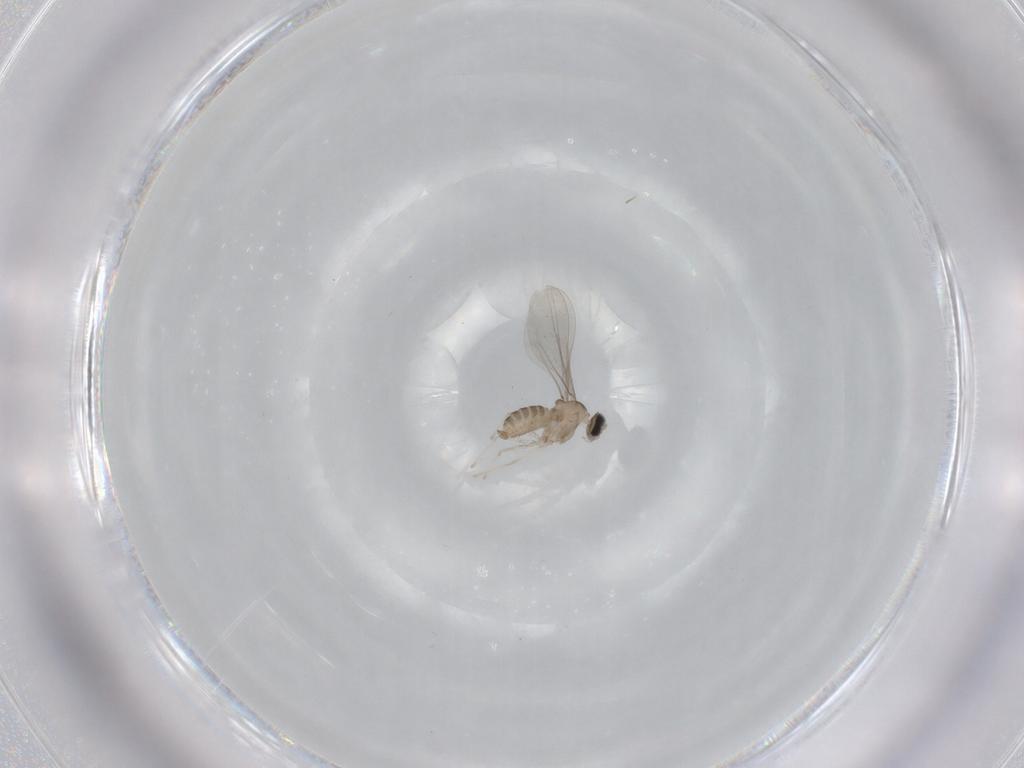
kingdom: Animalia
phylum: Arthropoda
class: Insecta
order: Diptera
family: Cecidomyiidae
